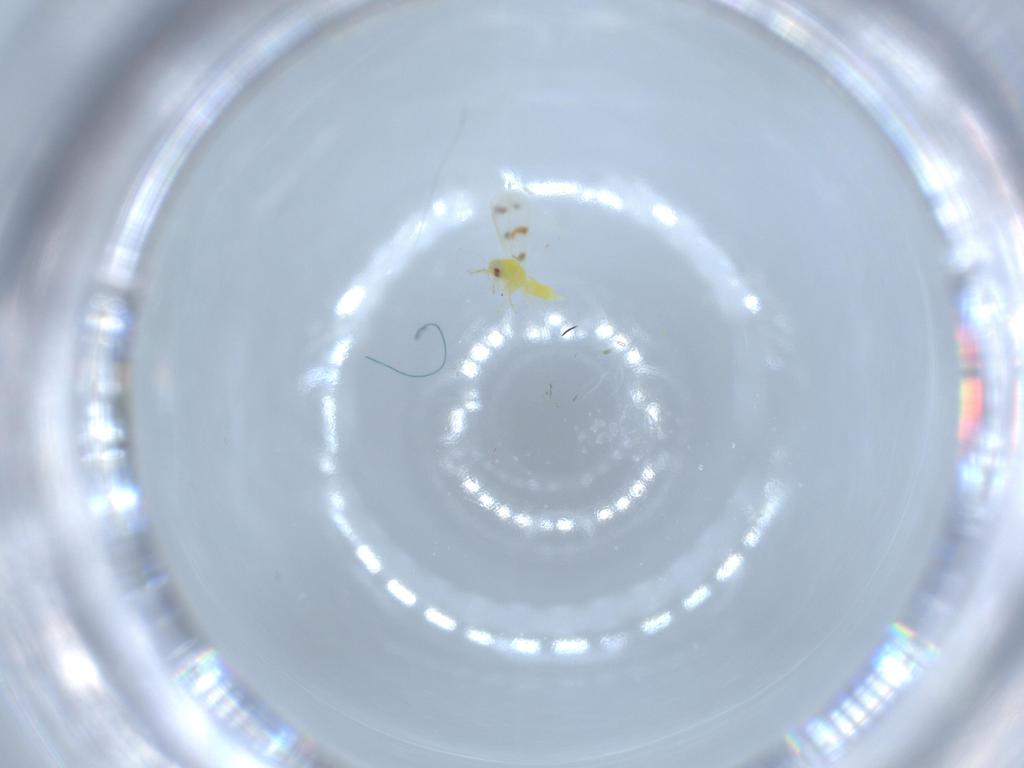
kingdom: Animalia
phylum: Arthropoda
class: Insecta
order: Hemiptera
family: Aleyrodidae
